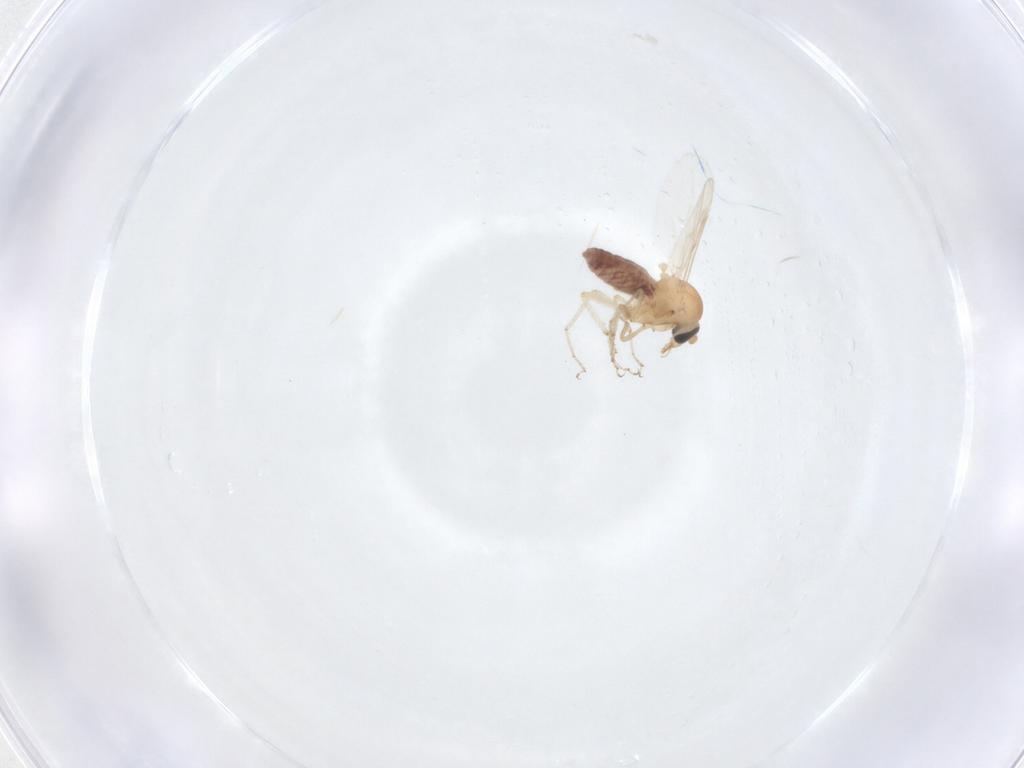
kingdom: Animalia
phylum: Arthropoda
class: Insecta
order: Diptera
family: Ceratopogonidae
